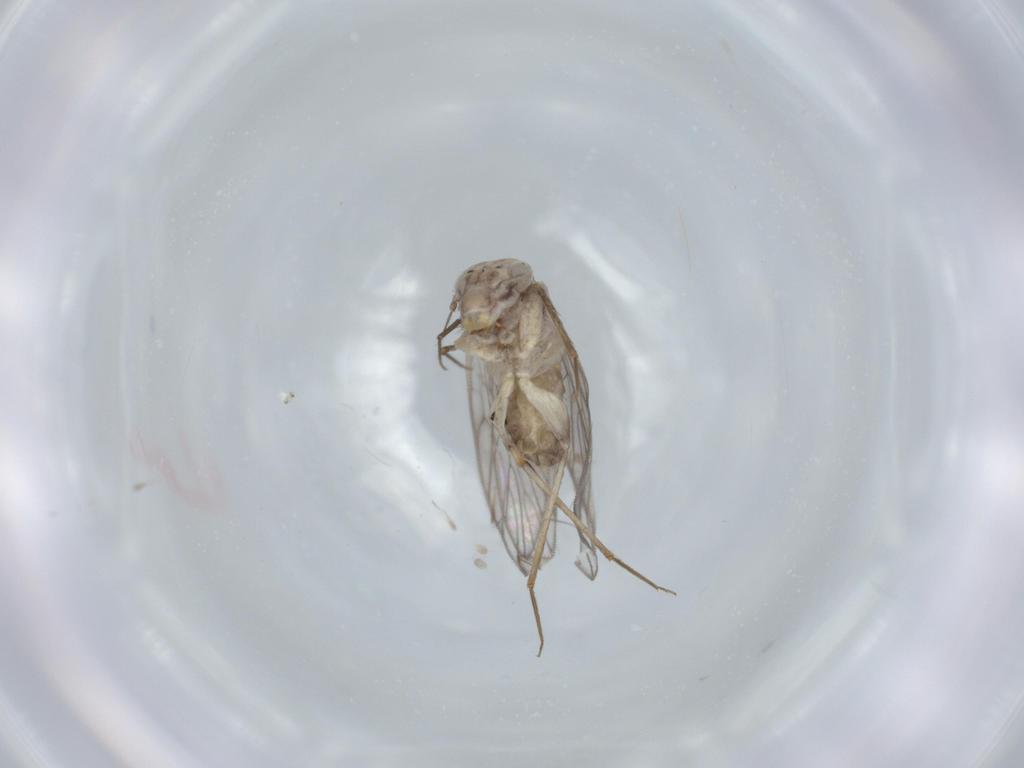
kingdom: Animalia
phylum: Arthropoda
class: Insecta
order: Psocodea
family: Lepidopsocidae
